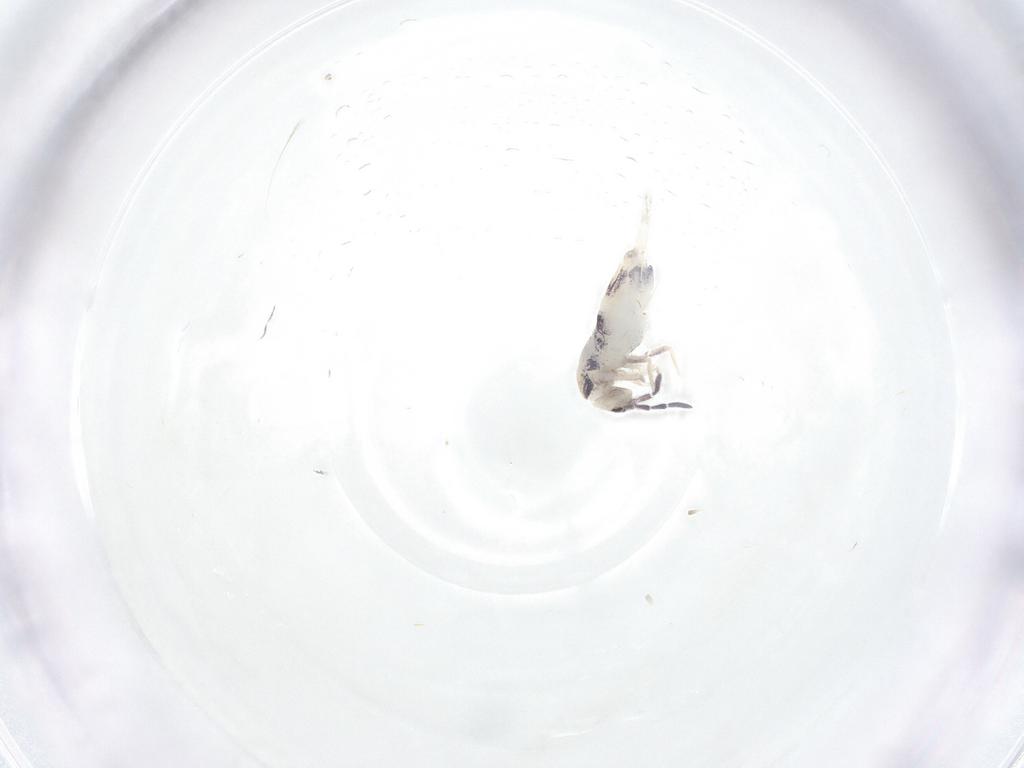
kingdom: Animalia
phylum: Arthropoda
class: Collembola
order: Entomobryomorpha
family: Entomobryidae
